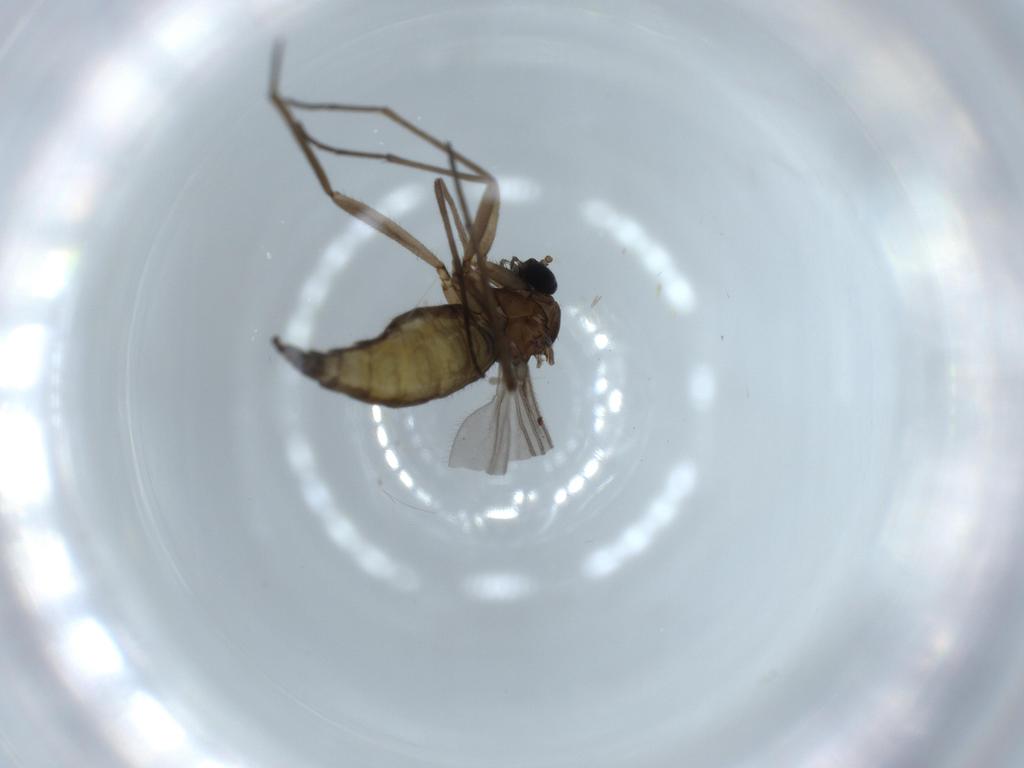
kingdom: Animalia
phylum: Arthropoda
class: Insecta
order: Diptera
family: Sciaridae
